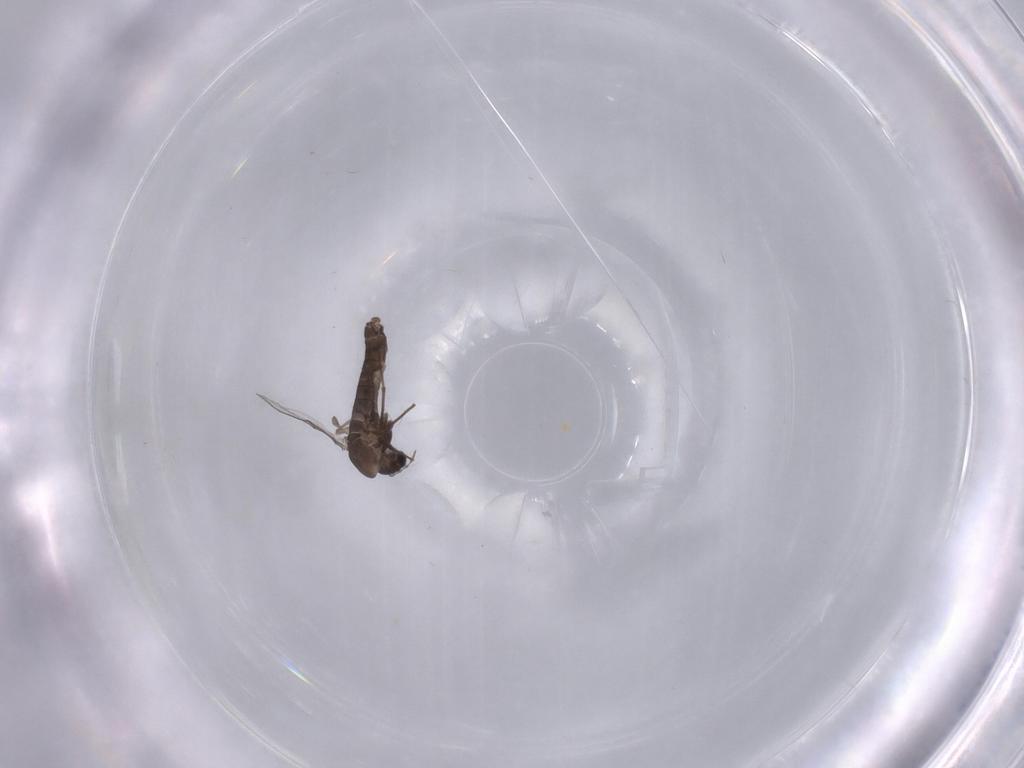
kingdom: Animalia
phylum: Arthropoda
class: Insecta
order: Diptera
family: Chironomidae
